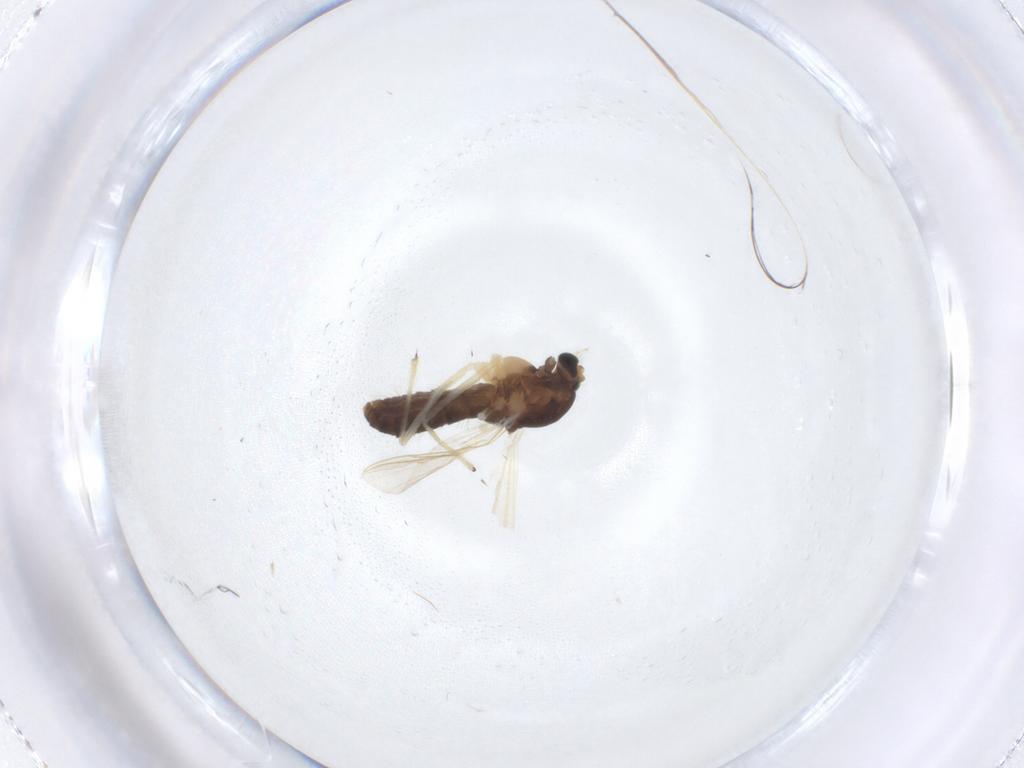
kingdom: Animalia
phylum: Arthropoda
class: Insecta
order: Diptera
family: Chironomidae
